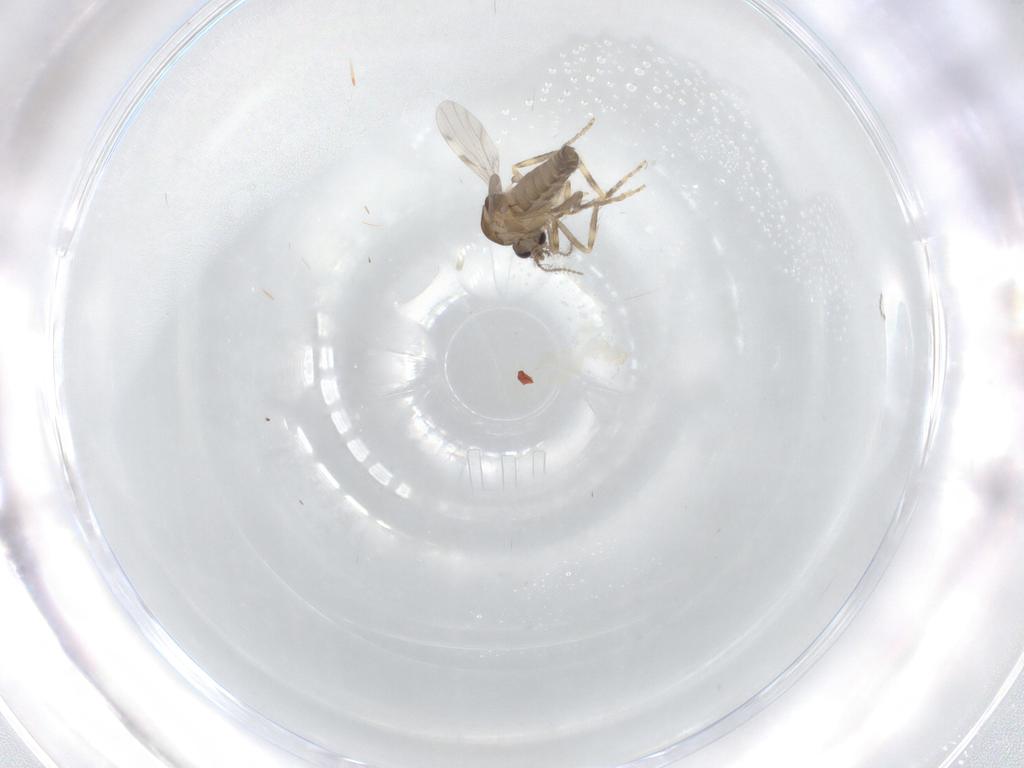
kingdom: Animalia
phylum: Arthropoda
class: Insecta
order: Diptera
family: Ceratopogonidae
